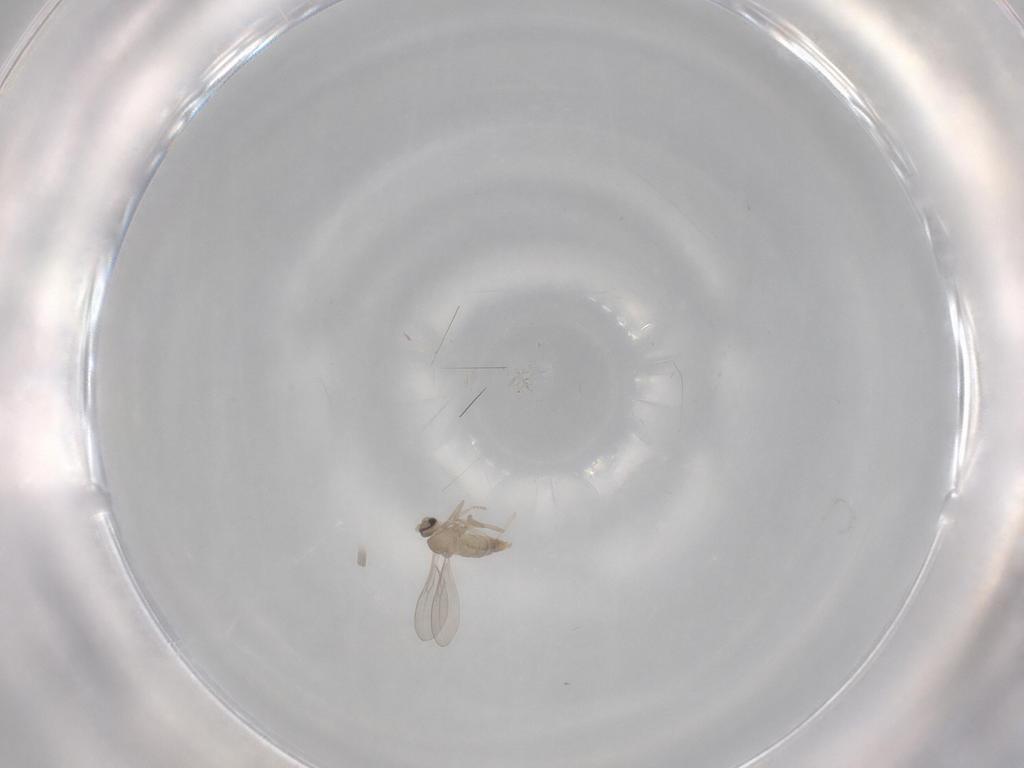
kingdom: Animalia
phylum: Arthropoda
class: Insecta
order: Diptera
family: Cecidomyiidae
